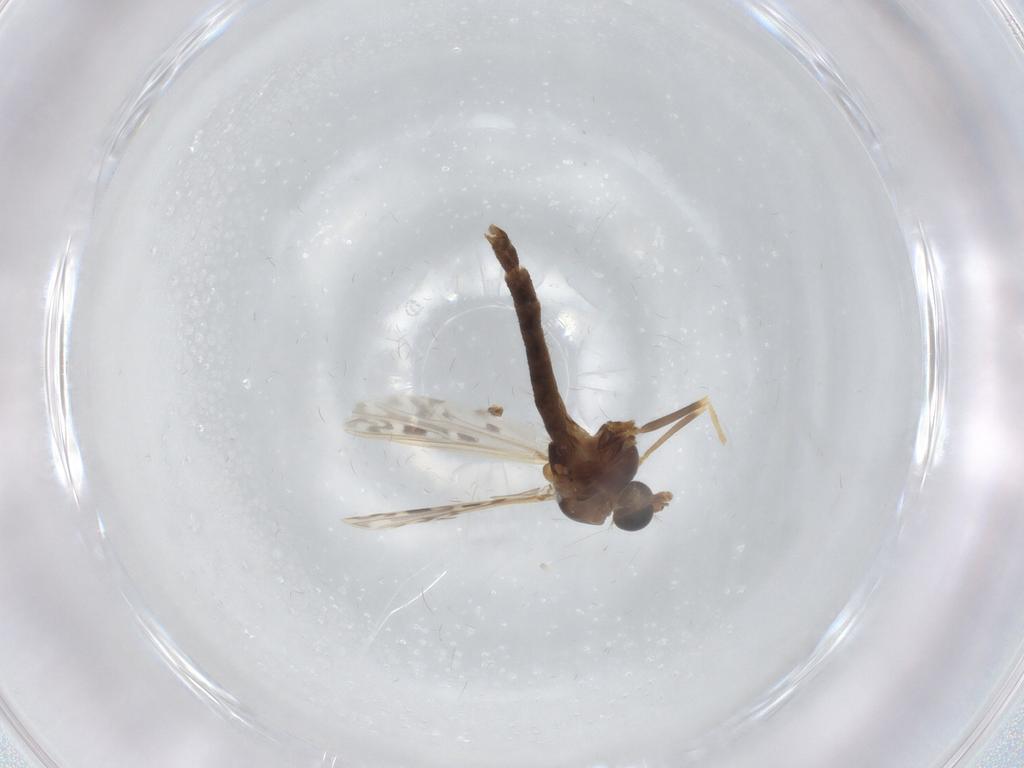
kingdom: Animalia
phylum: Arthropoda
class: Insecta
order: Diptera
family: Chironomidae
